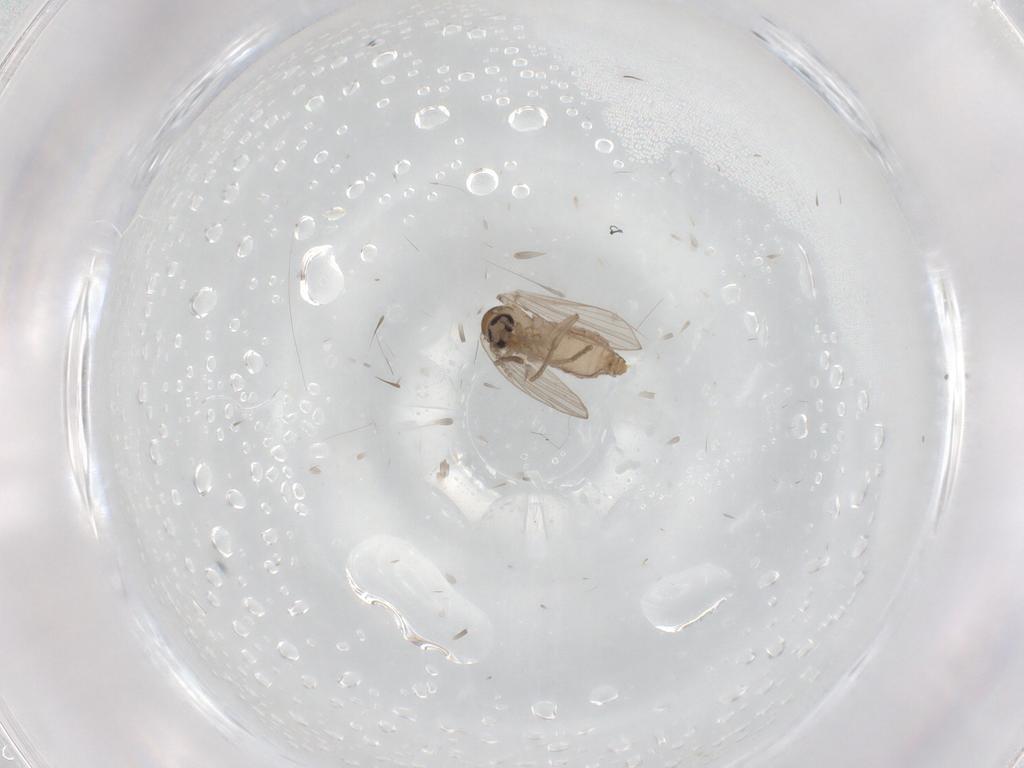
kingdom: Animalia
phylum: Arthropoda
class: Insecta
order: Diptera
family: Psychodidae
